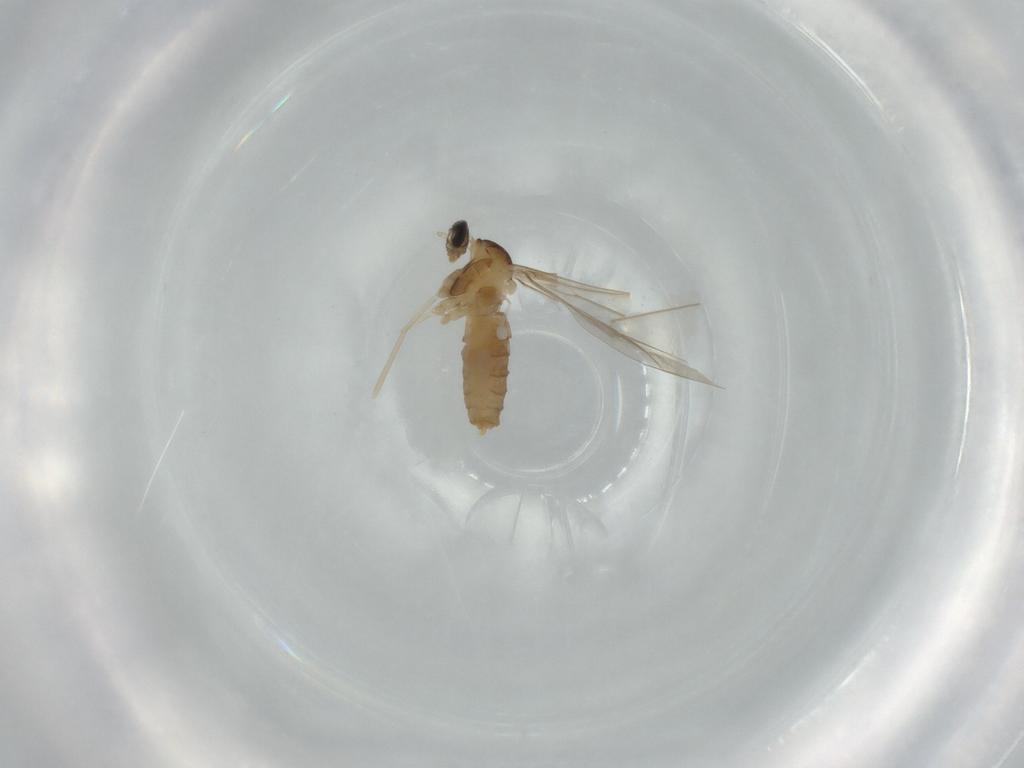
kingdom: Animalia
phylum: Arthropoda
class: Insecta
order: Diptera
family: Cecidomyiidae
